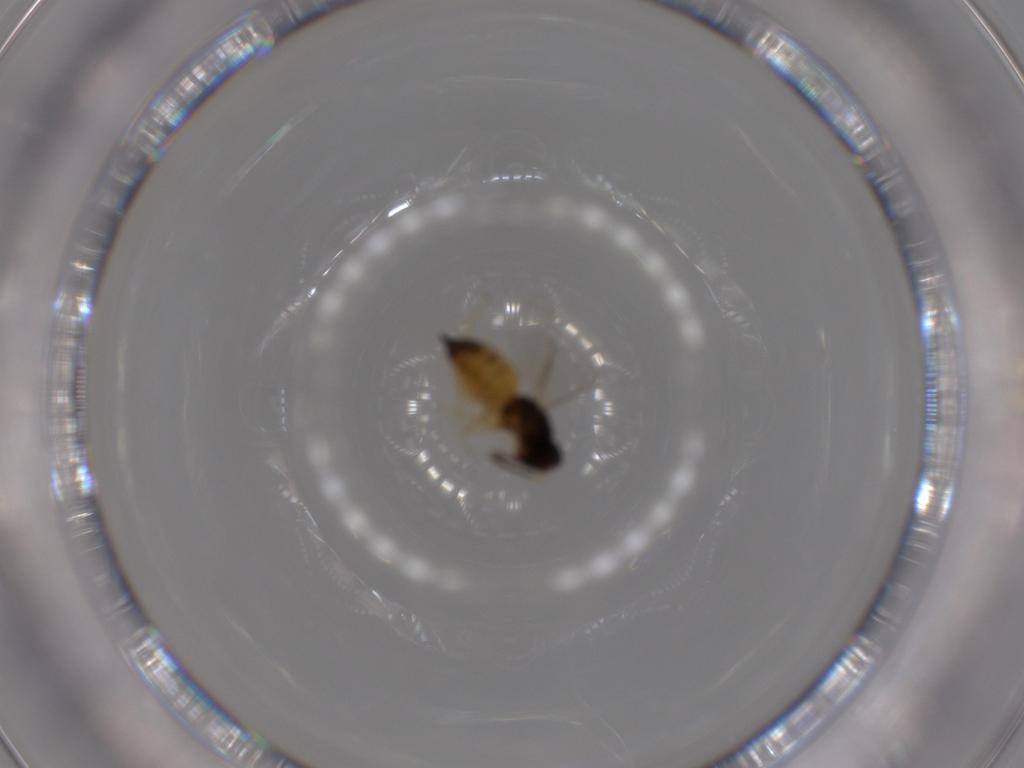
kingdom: Animalia
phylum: Arthropoda
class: Insecta
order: Hymenoptera
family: Eulophidae
